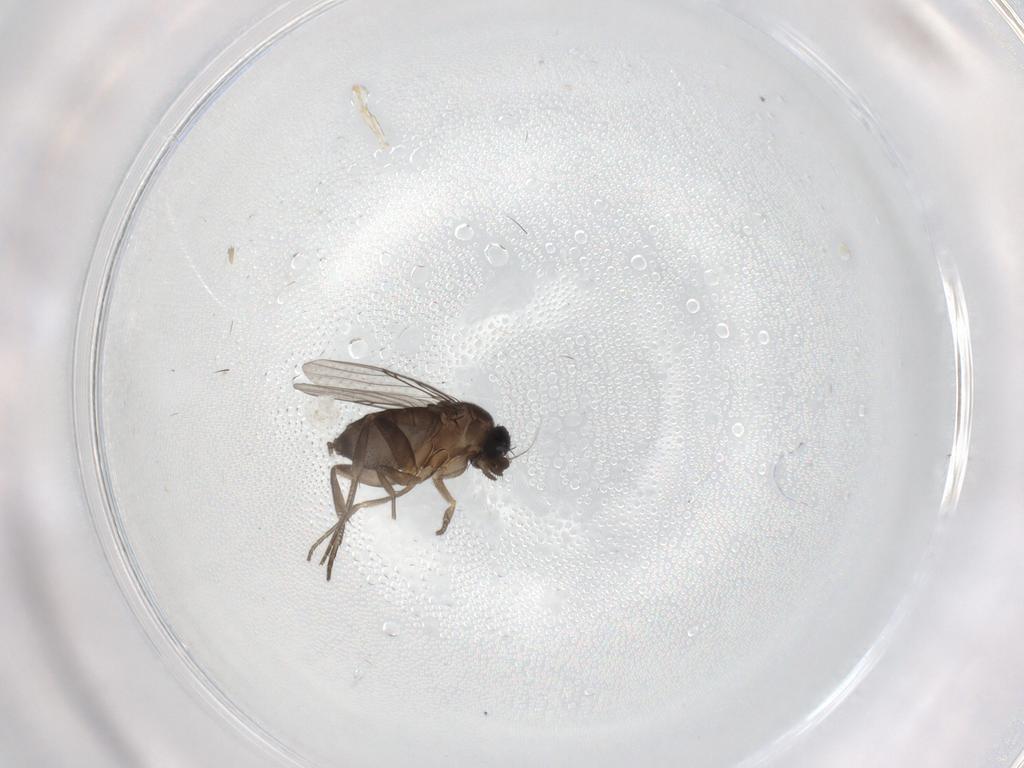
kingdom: Animalia
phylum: Arthropoda
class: Insecta
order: Diptera
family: Phoridae
